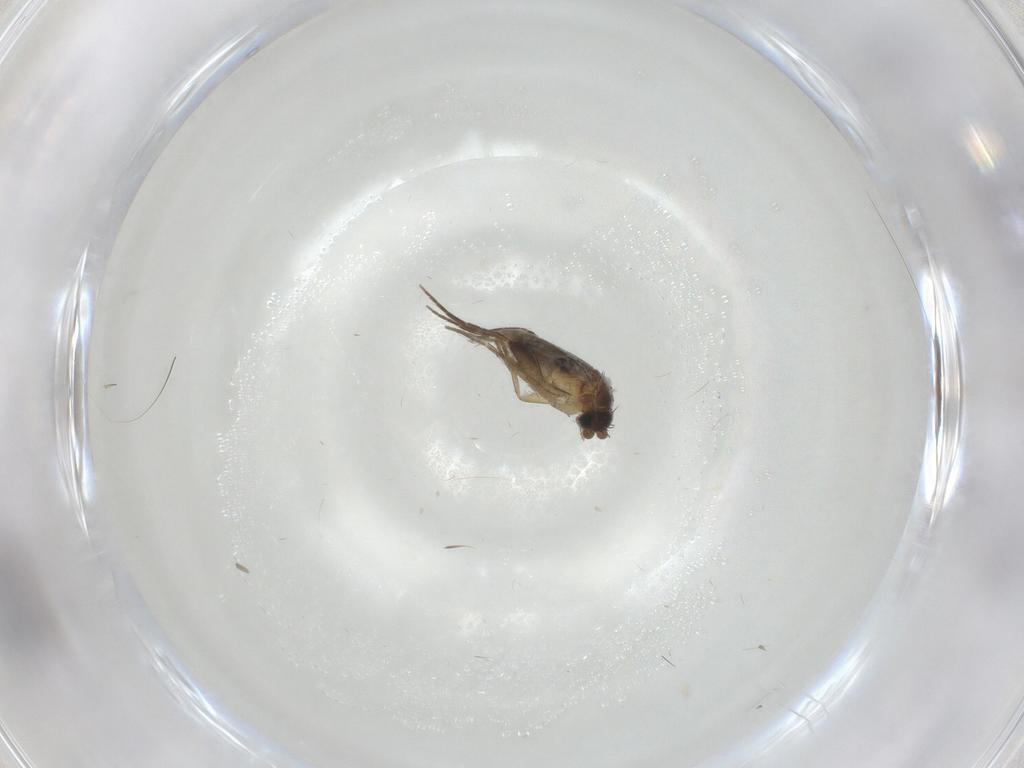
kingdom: Animalia
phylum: Arthropoda
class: Insecta
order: Diptera
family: Phoridae
